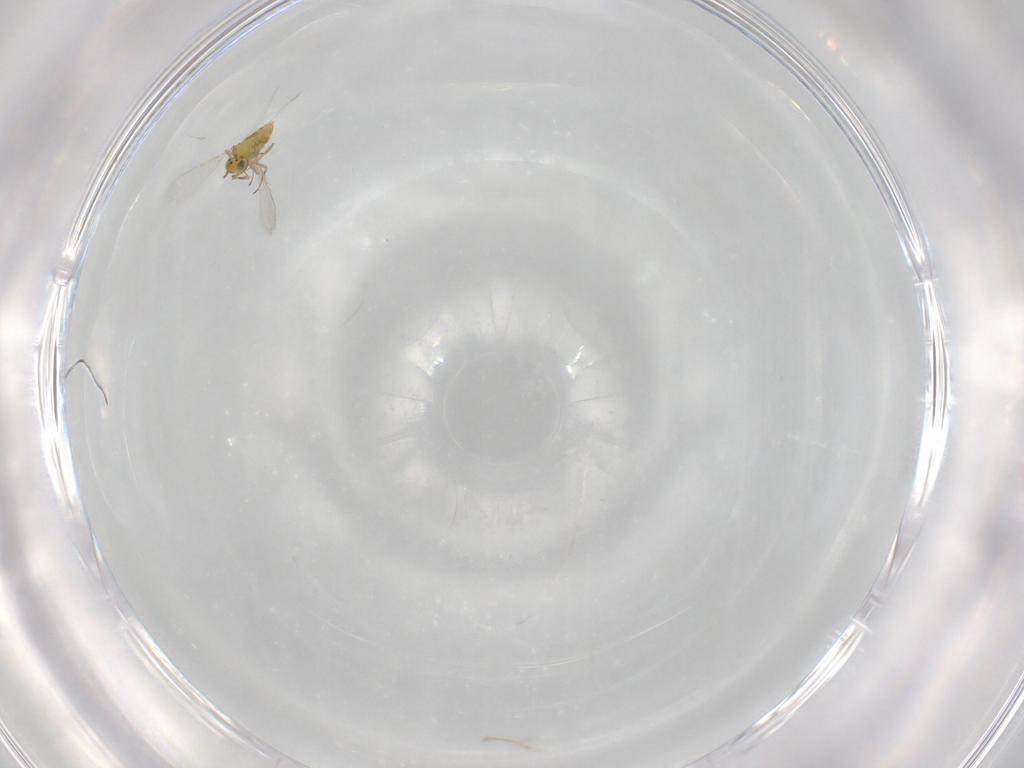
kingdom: Animalia
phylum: Arthropoda
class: Insecta
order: Hymenoptera
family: Aphelinidae
